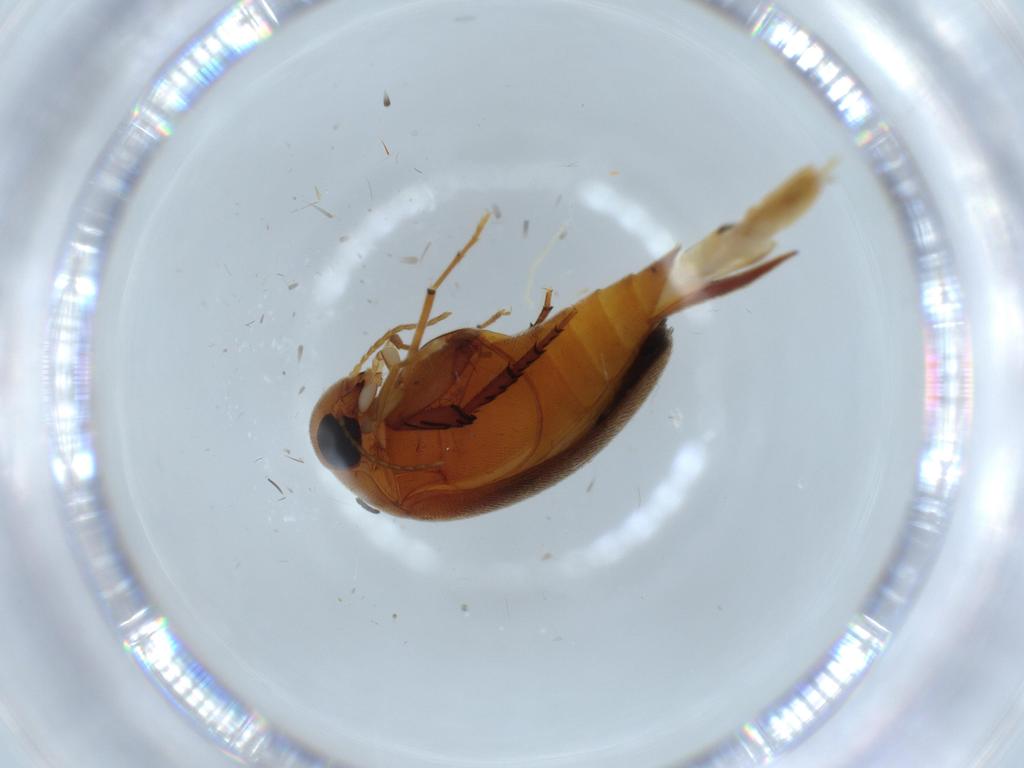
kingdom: Animalia
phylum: Arthropoda
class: Insecta
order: Coleoptera
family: Mordellidae
